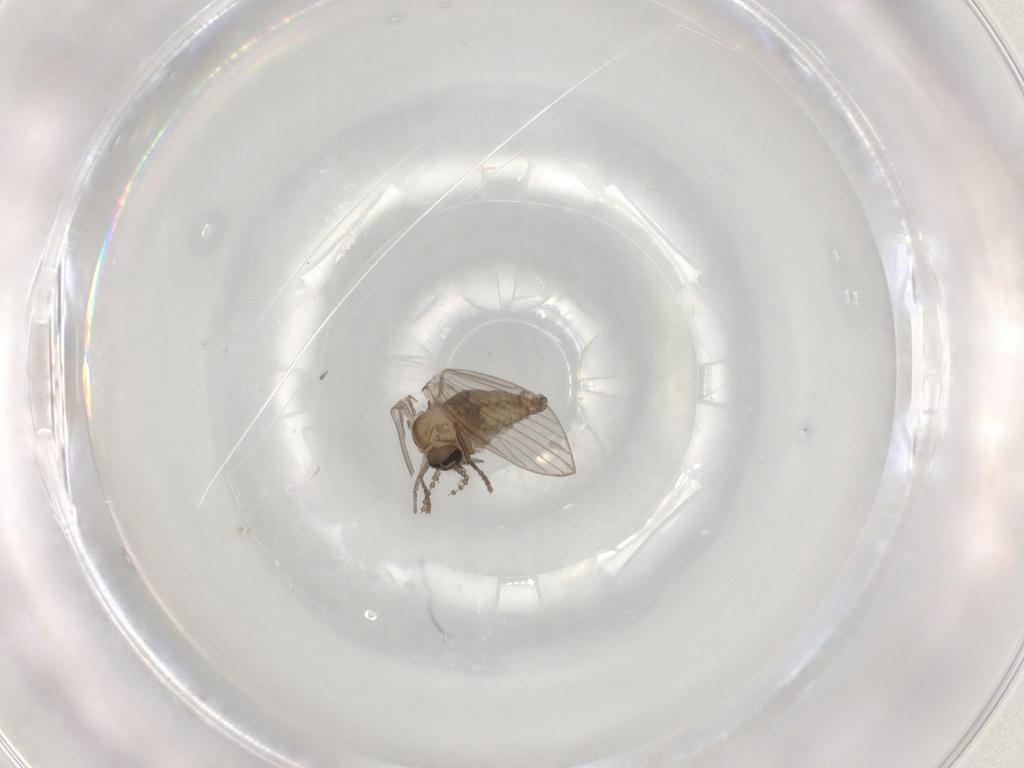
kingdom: Animalia
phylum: Arthropoda
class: Insecta
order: Diptera
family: Psychodidae
